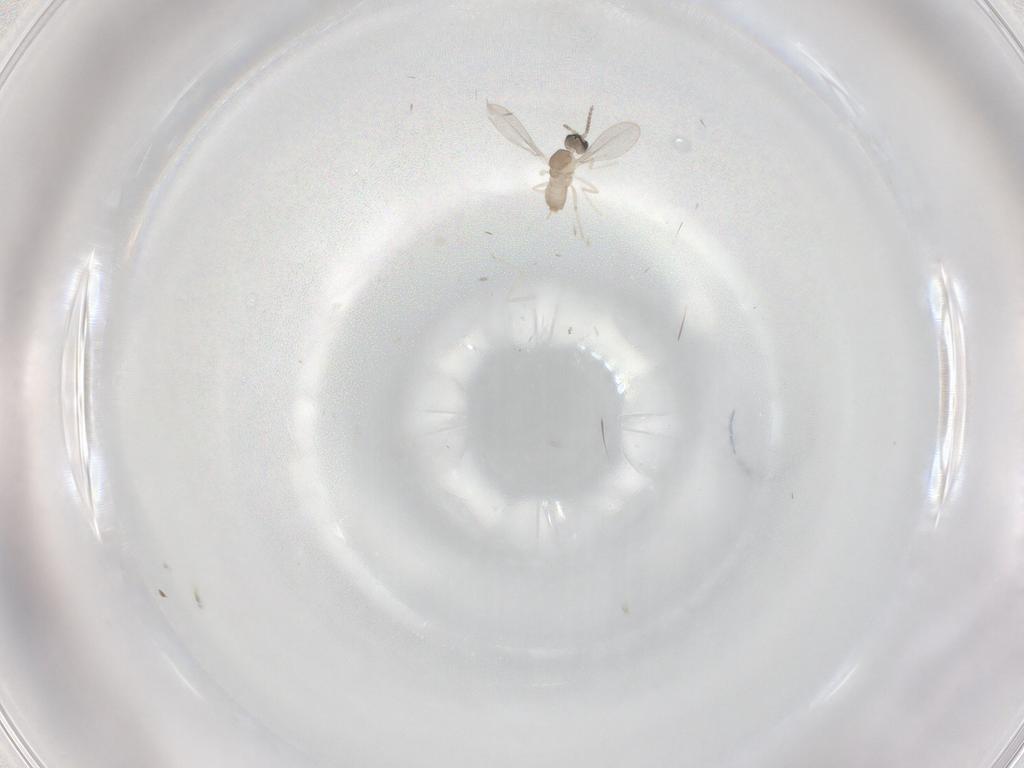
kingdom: Animalia
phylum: Arthropoda
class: Insecta
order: Diptera
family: Cecidomyiidae
